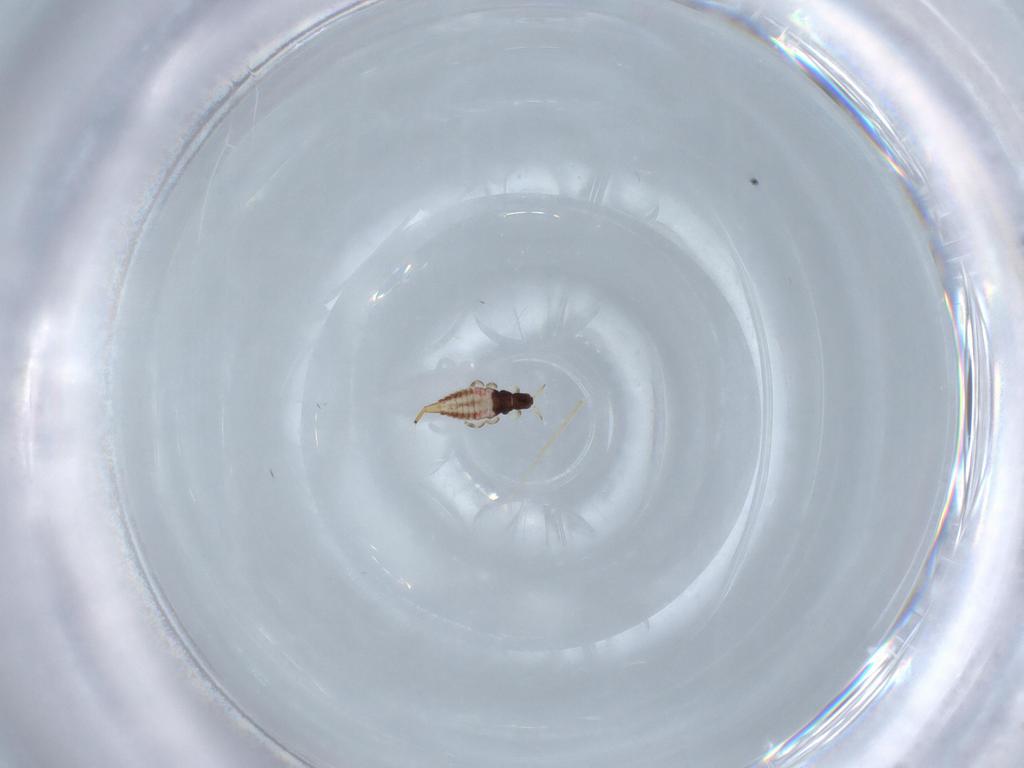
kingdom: Animalia
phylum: Arthropoda
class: Insecta
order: Thysanoptera
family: Phlaeothripidae
